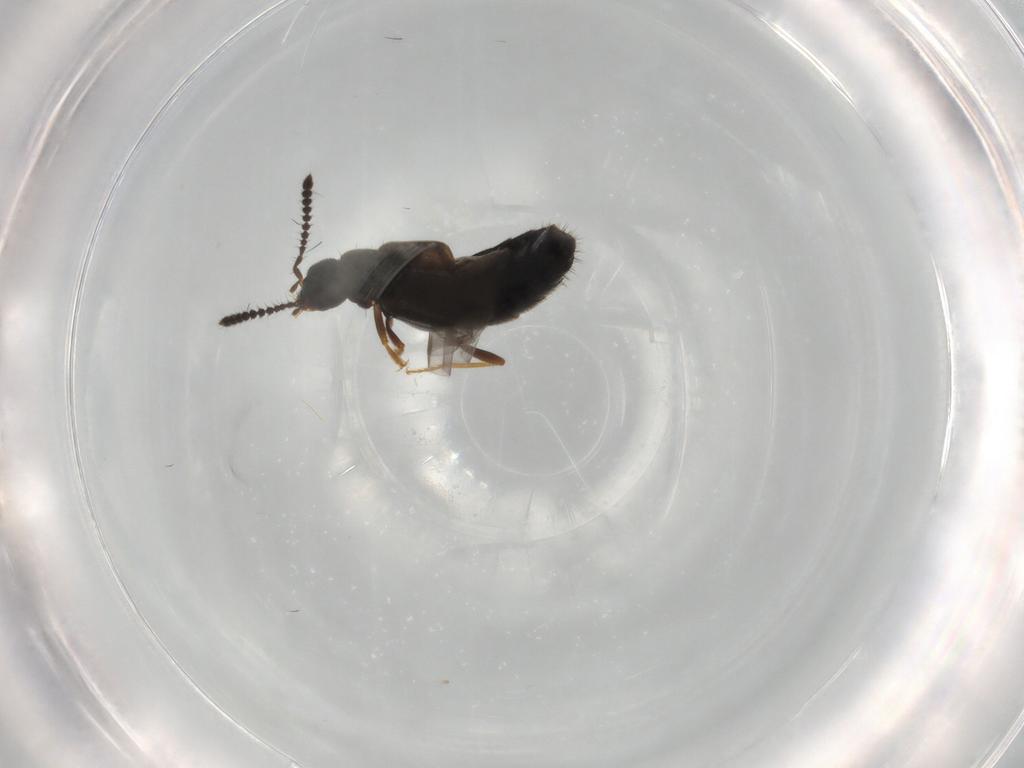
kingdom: Animalia
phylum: Arthropoda
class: Insecta
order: Coleoptera
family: Staphylinidae
